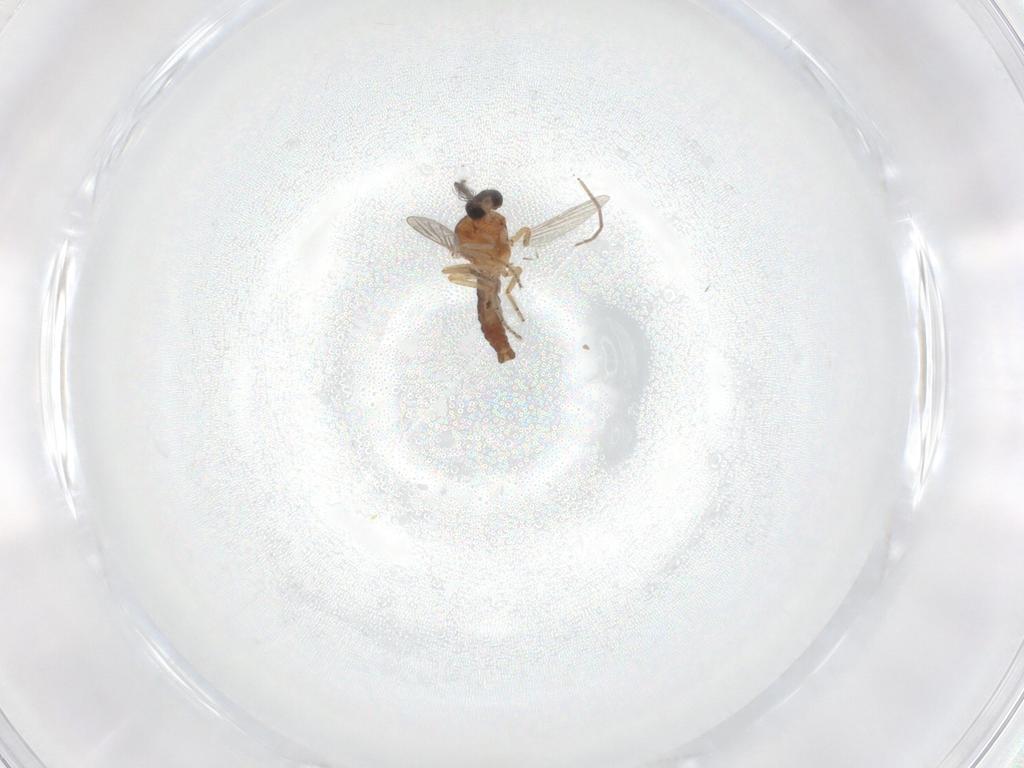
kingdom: Animalia
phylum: Arthropoda
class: Insecta
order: Diptera
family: Ceratopogonidae
